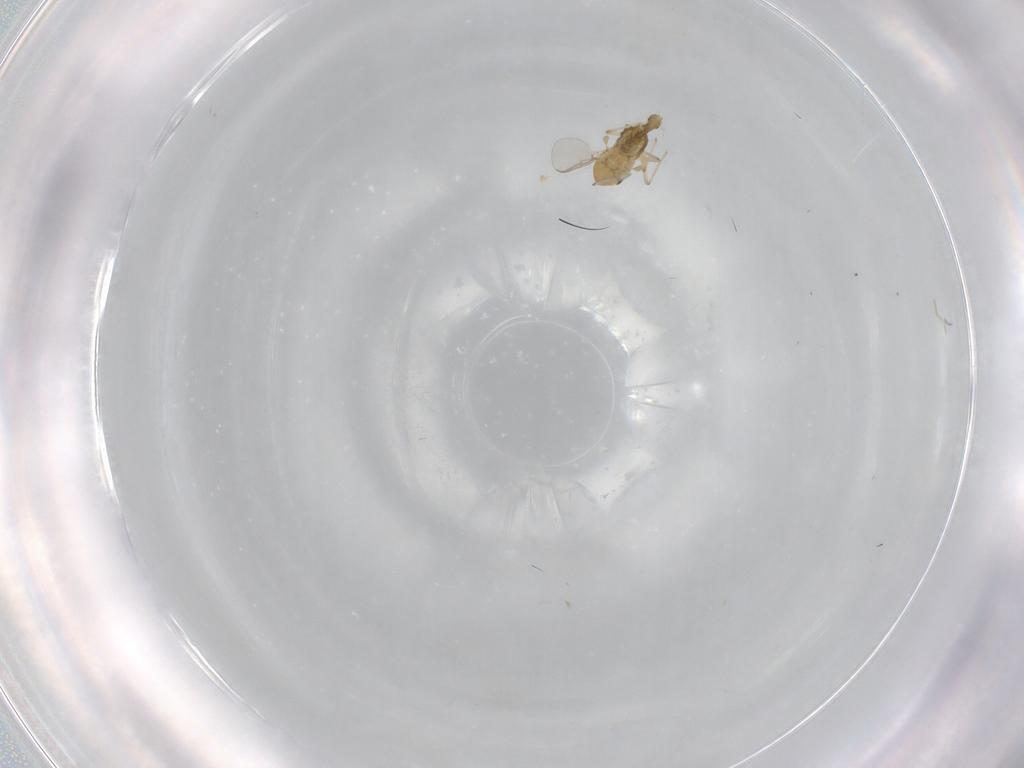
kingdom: Animalia
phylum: Arthropoda
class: Insecta
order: Diptera
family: Chironomidae
